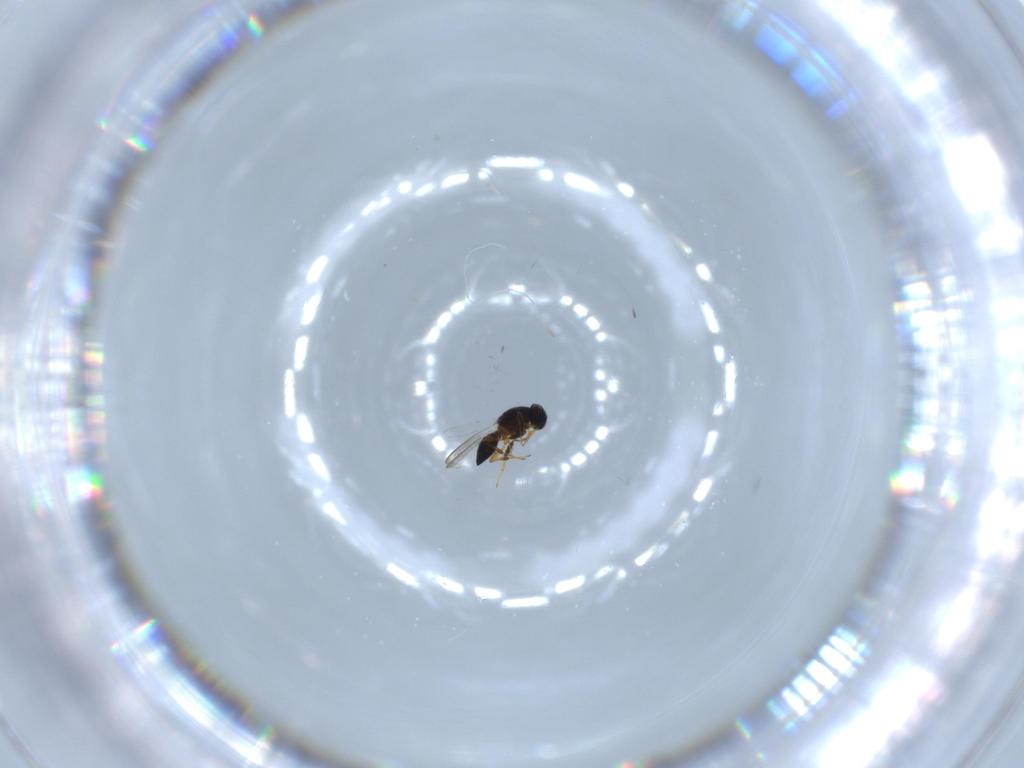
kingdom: Animalia
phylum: Arthropoda
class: Insecta
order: Hymenoptera
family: Platygastridae
